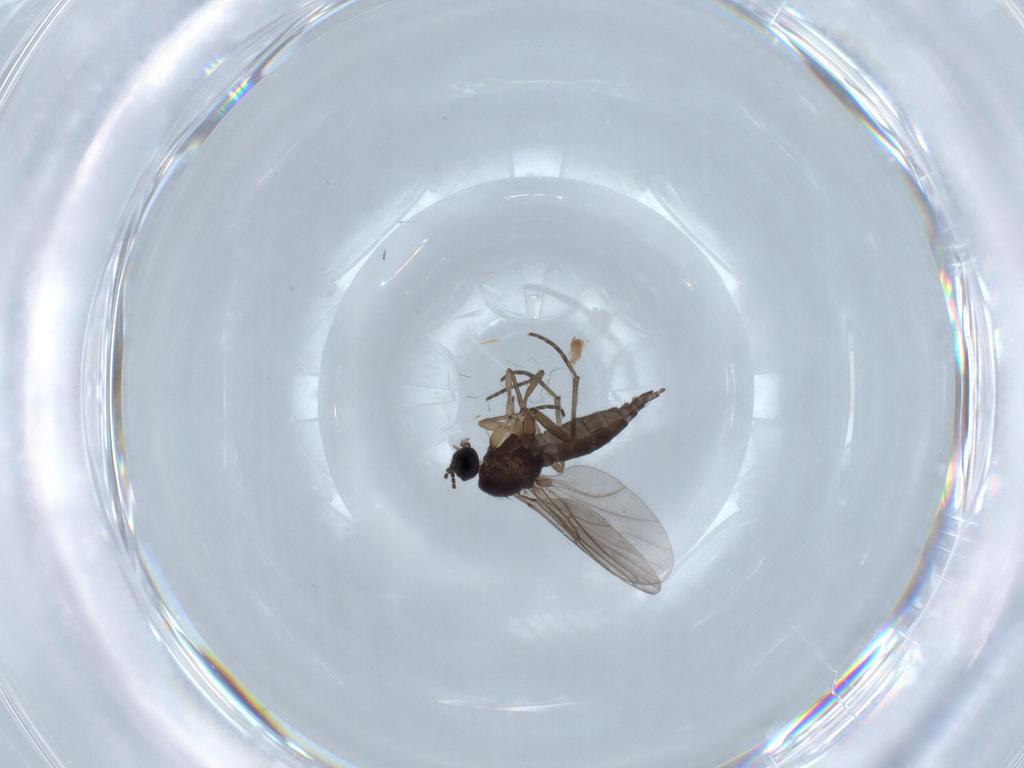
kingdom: Animalia
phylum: Arthropoda
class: Insecta
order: Diptera
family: Sciaridae
